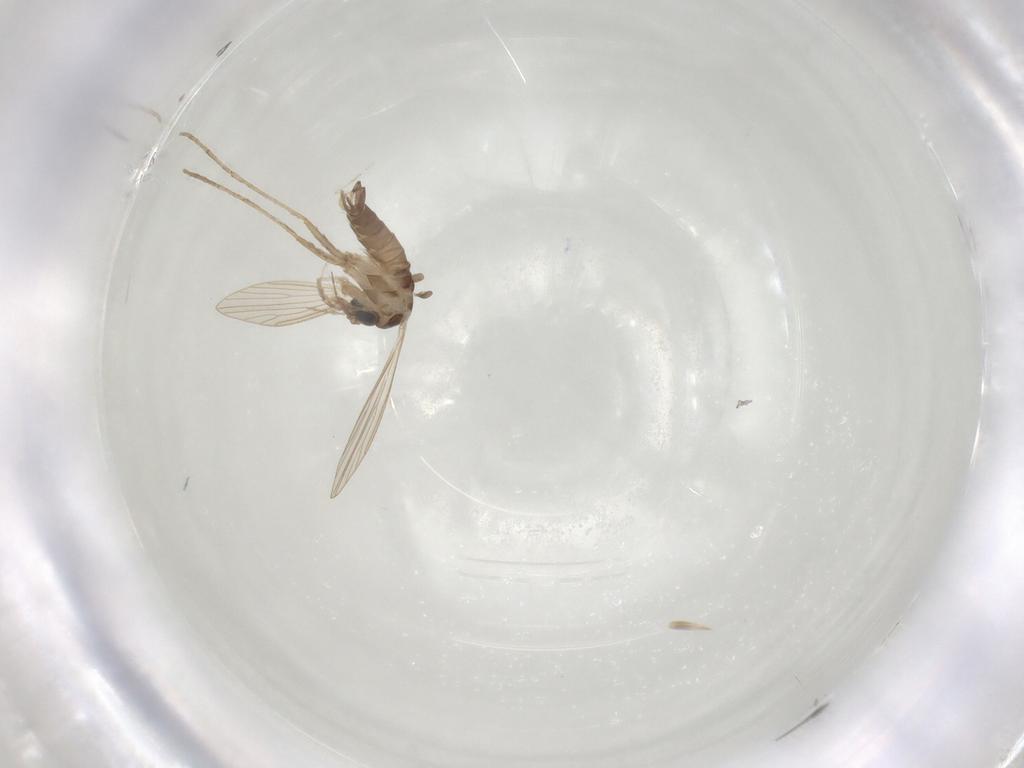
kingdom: Animalia
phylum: Arthropoda
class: Insecta
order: Diptera
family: Psychodidae
